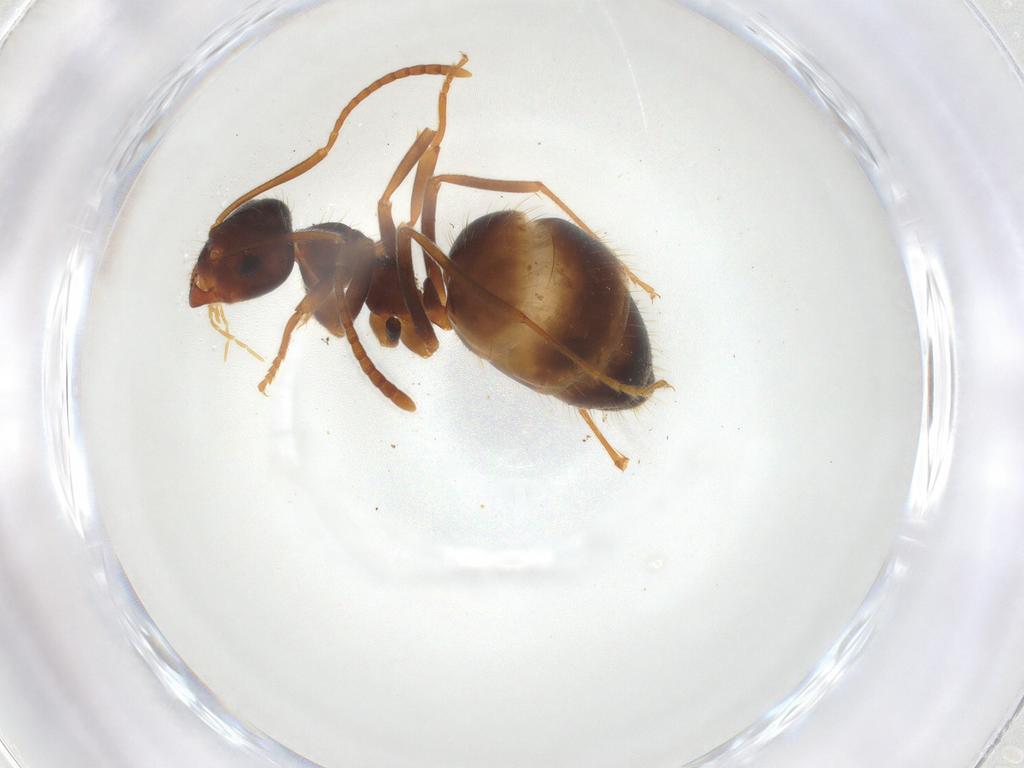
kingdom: Animalia
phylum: Arthropoda
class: Insecta
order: Hymenoptera
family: Formicidae
